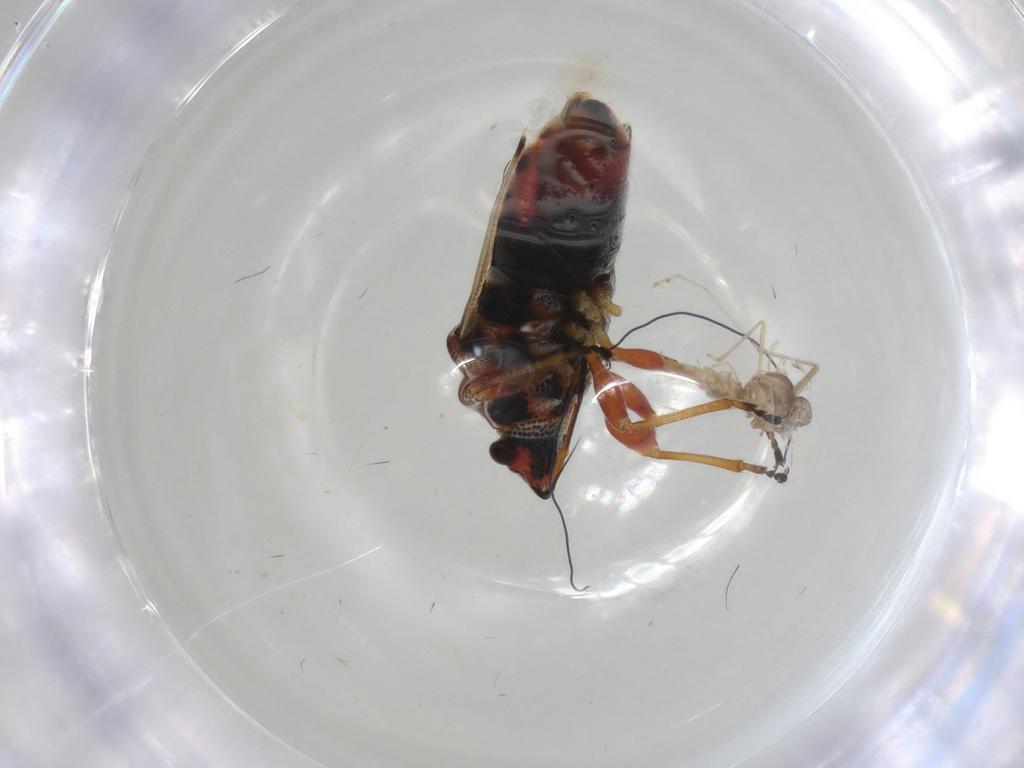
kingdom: Animalia
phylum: Arthropoda
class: Insecta
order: Hemiptera
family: Lygaeidae
